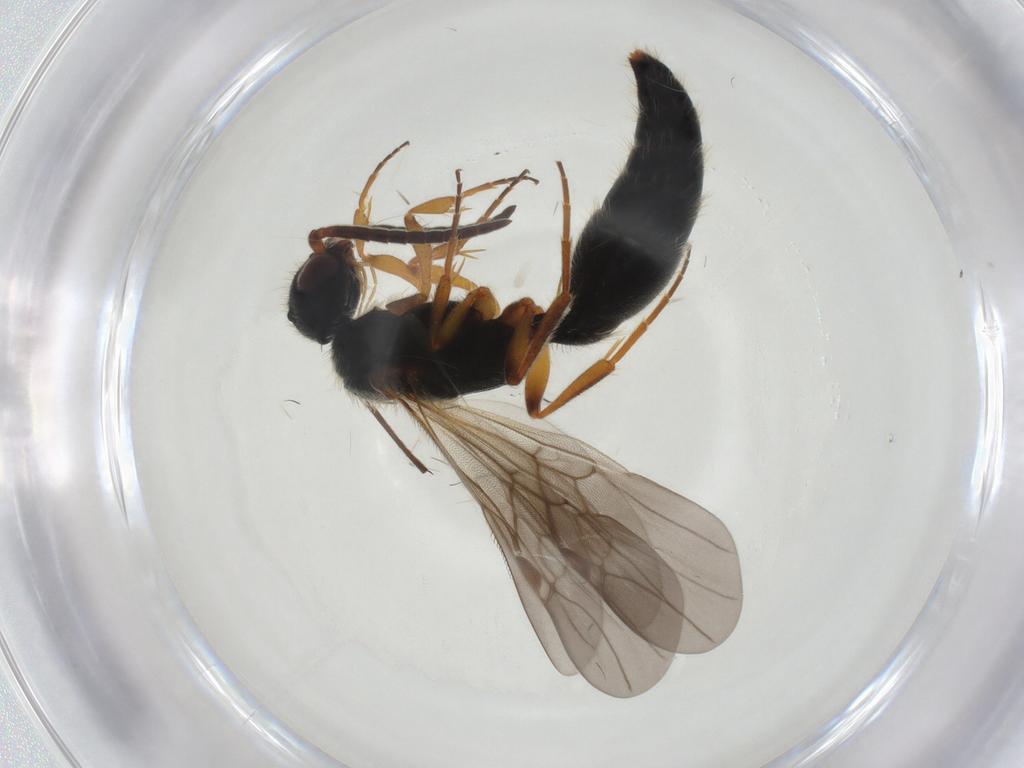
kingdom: Animalia
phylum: Arthropoda
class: Insecta
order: Hymenoptera
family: Mutillidae
